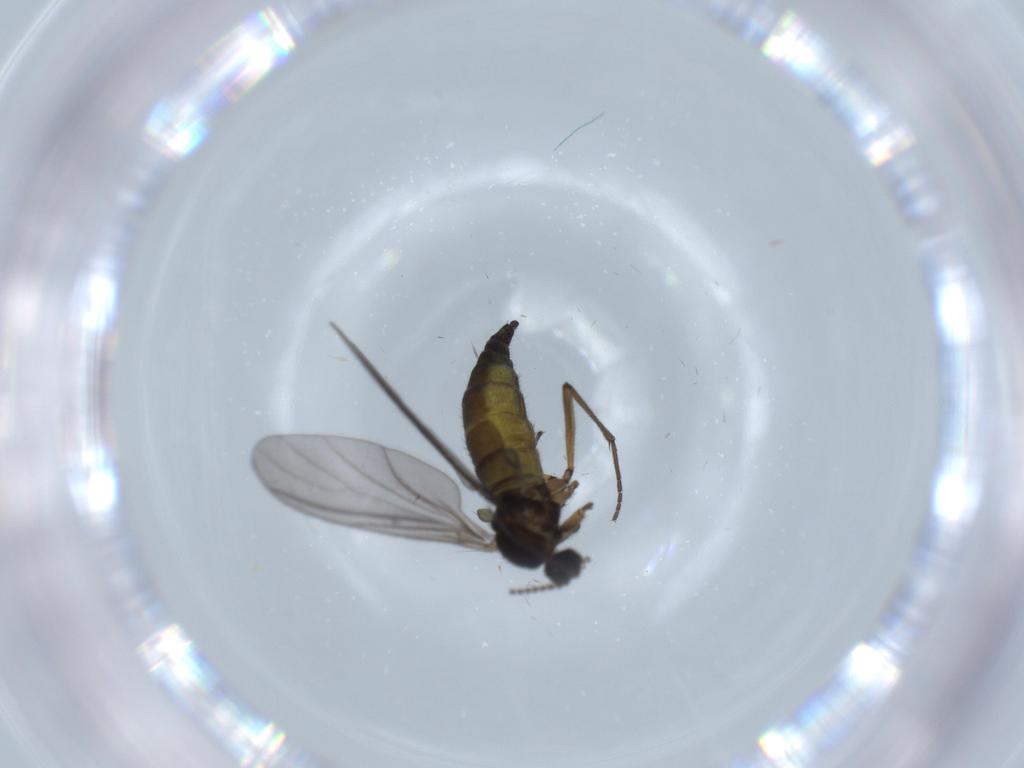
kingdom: Animalia
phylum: Arthropoda
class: Insecta
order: Diptera
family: Sciaridae
